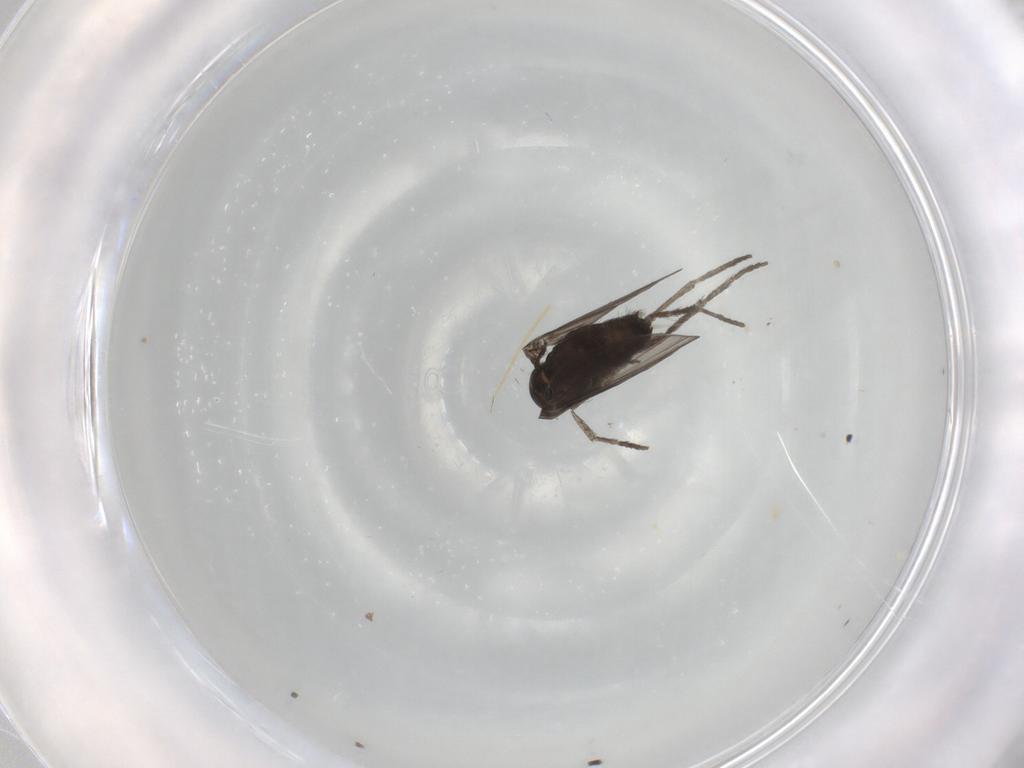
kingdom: Animalia
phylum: Arthropoda
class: Insecta
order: Diptera
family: Psychodidae
